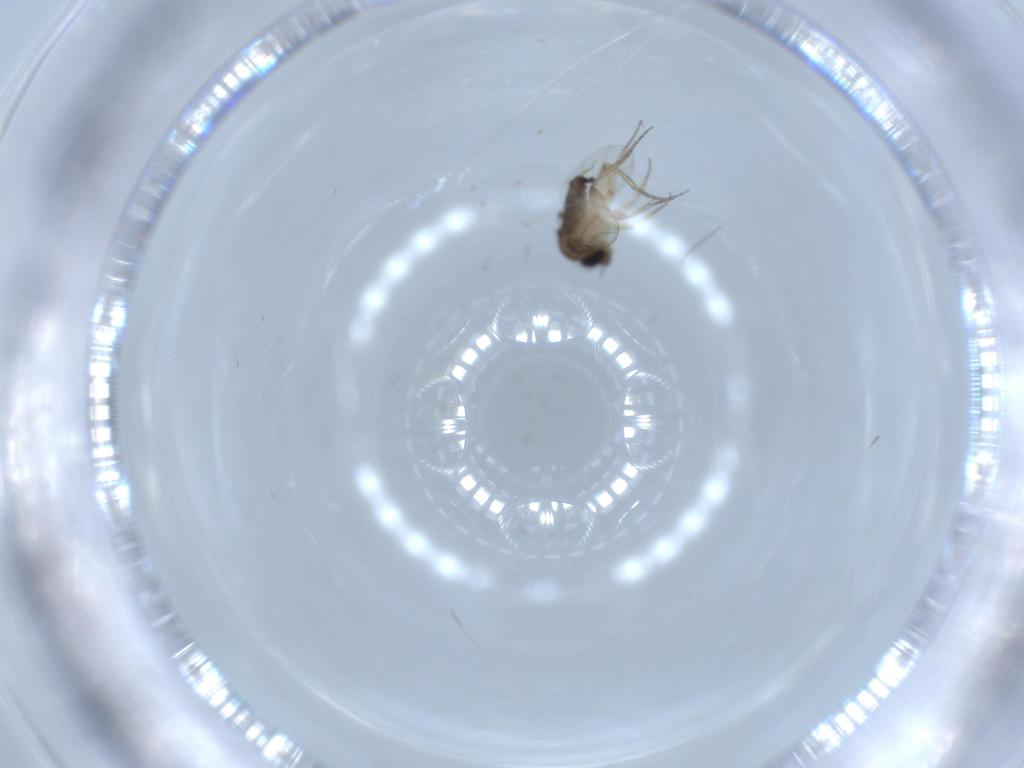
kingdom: Animalia
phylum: Arthropoda
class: Insecta
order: Diptera
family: Phoridae
